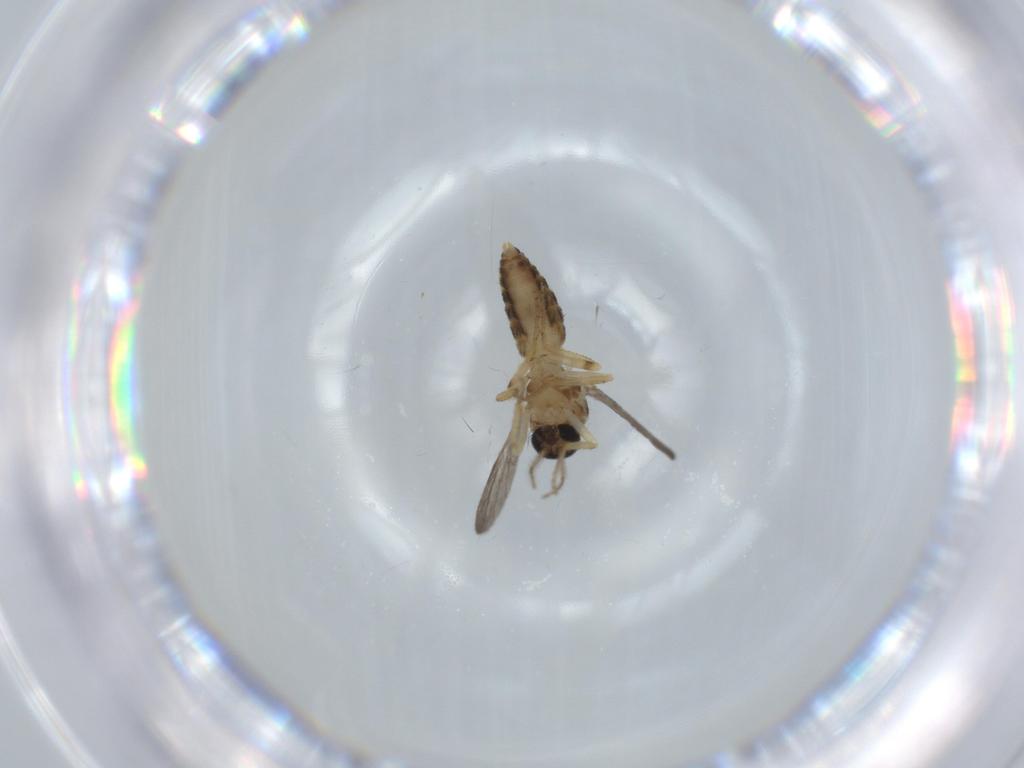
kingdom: Animalia
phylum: Arthropoda
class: Insecta
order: Diptera
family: Ceratopogonidae
